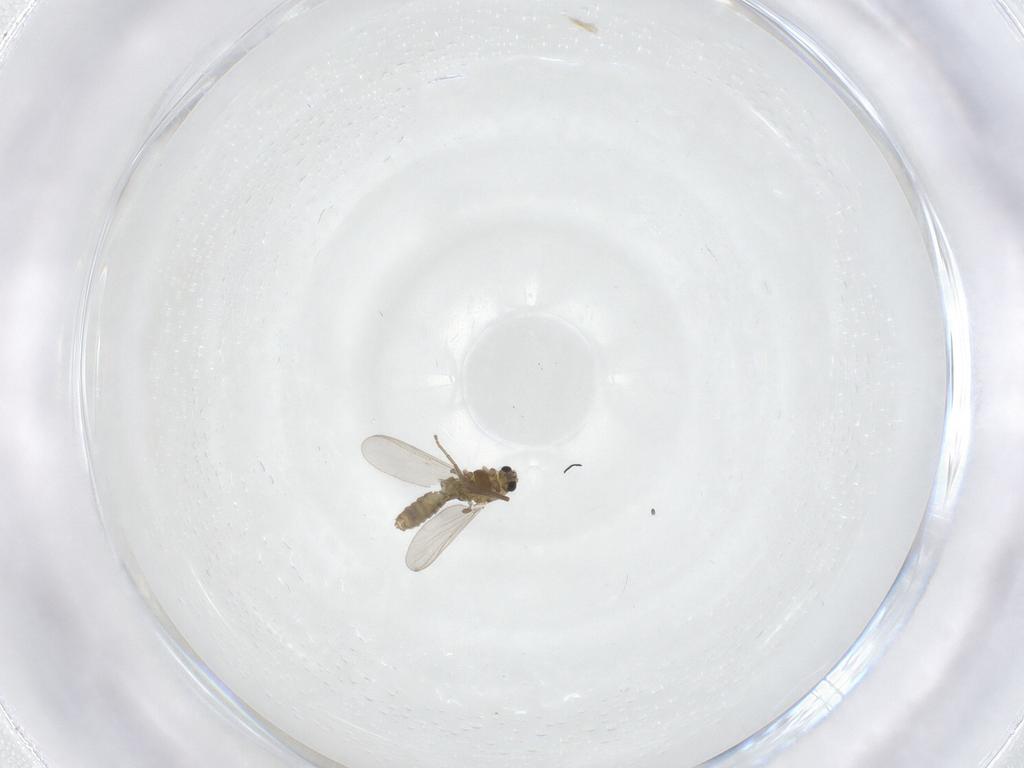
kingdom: Animalia
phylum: Arthropoda
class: Insecta
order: Diptera
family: Chironomidae
